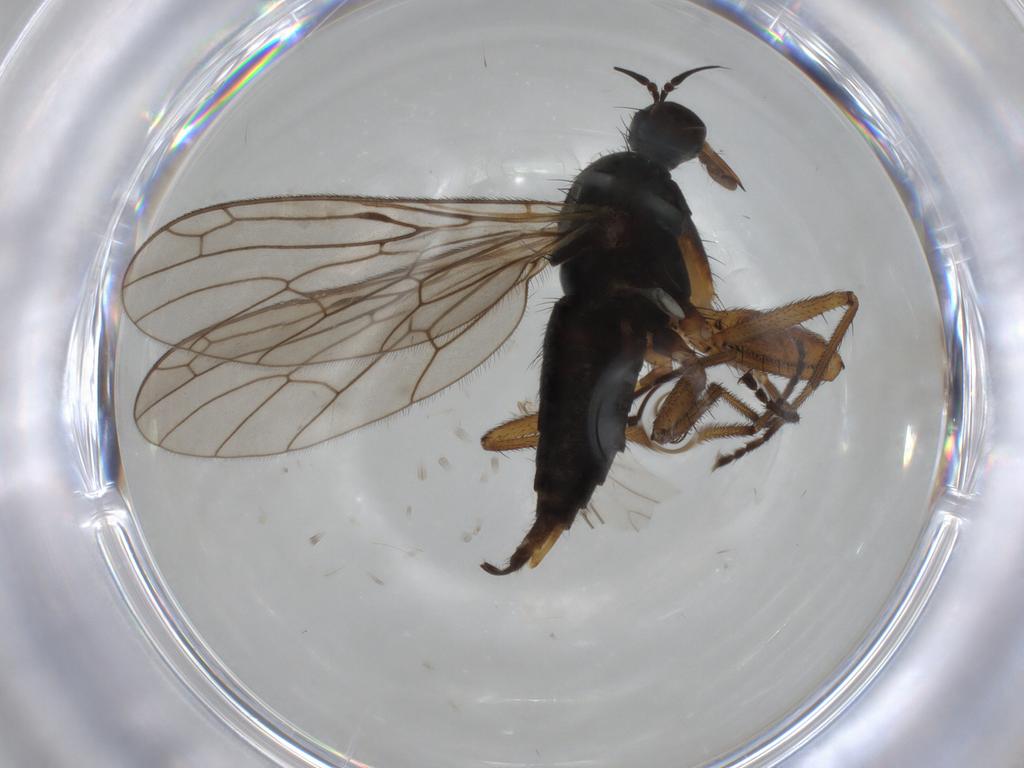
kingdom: Animalia
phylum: Arthropoda
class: Insecta
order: Diptera
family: Empididae
